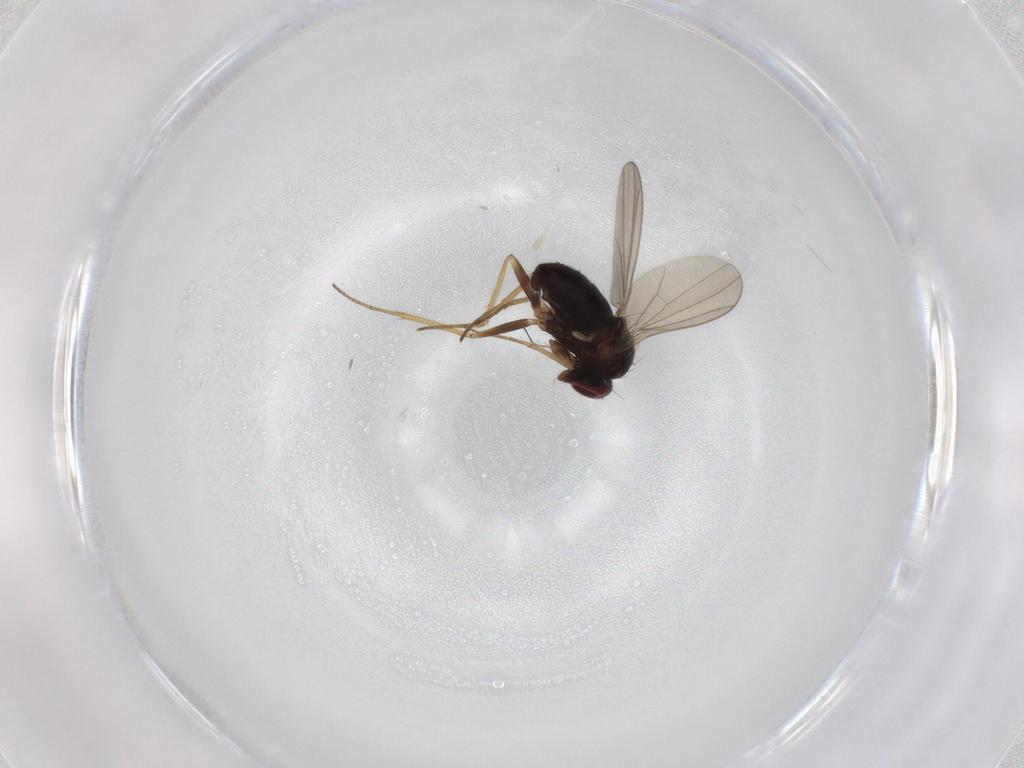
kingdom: Animalia
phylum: Arthropoda
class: Insecta
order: Diptera
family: Dolichopodidae
